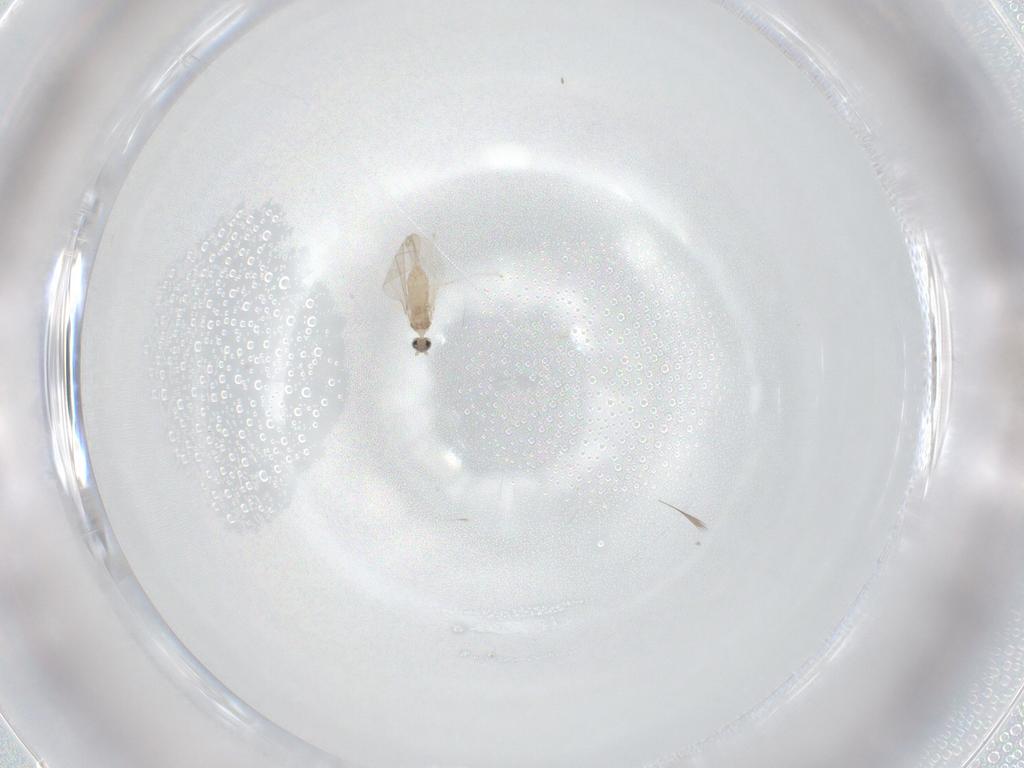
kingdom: Animalia
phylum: Arthropoda
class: Insecta
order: Diptera
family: Cecidomyiidae
